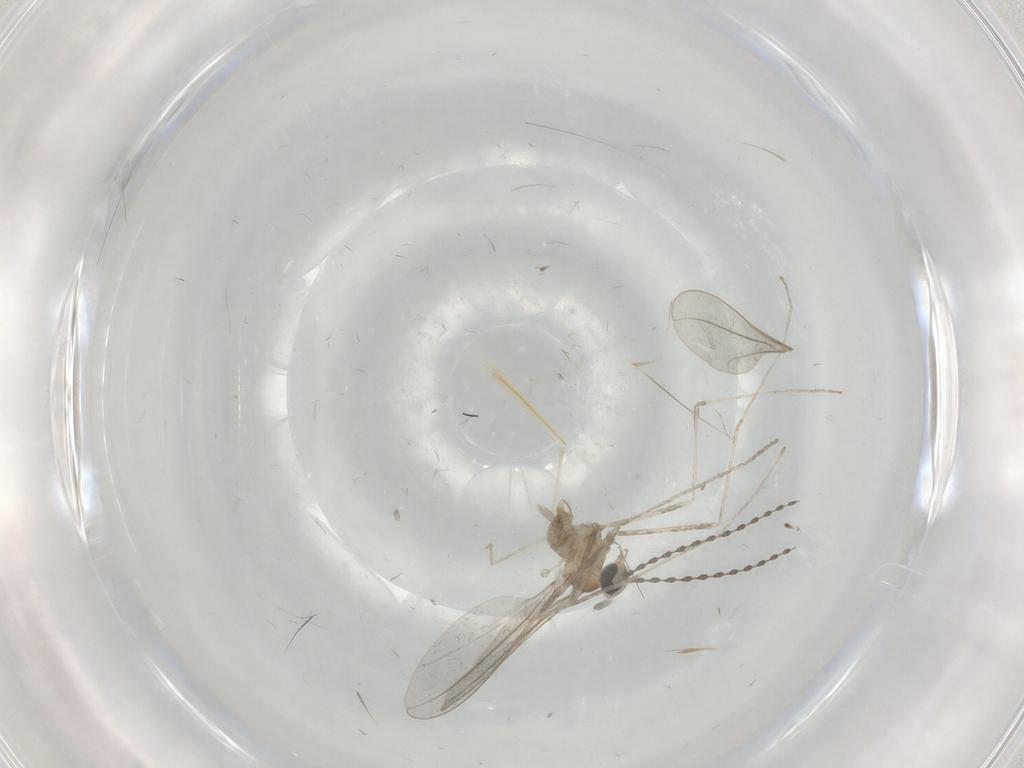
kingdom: Animalia
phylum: Arthropoda
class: Insecta
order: Diptera
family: Cecidomyiidae
